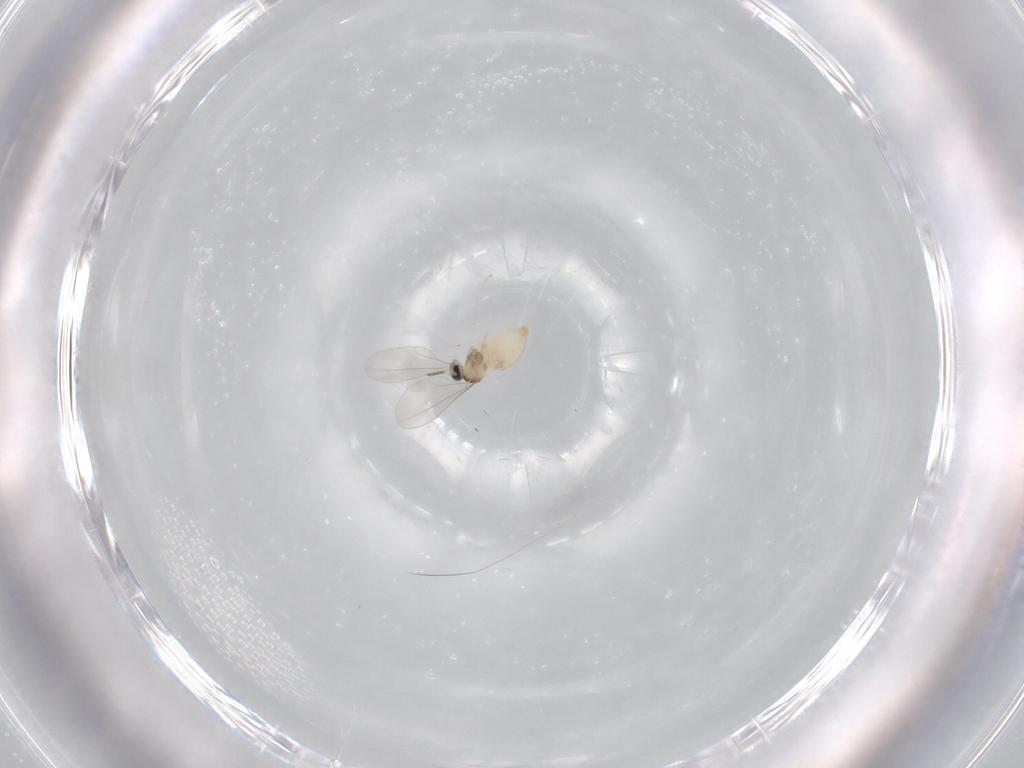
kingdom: Animalia
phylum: Arthropoda
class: Insecta
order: Diptera
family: Cecidomyiidae
